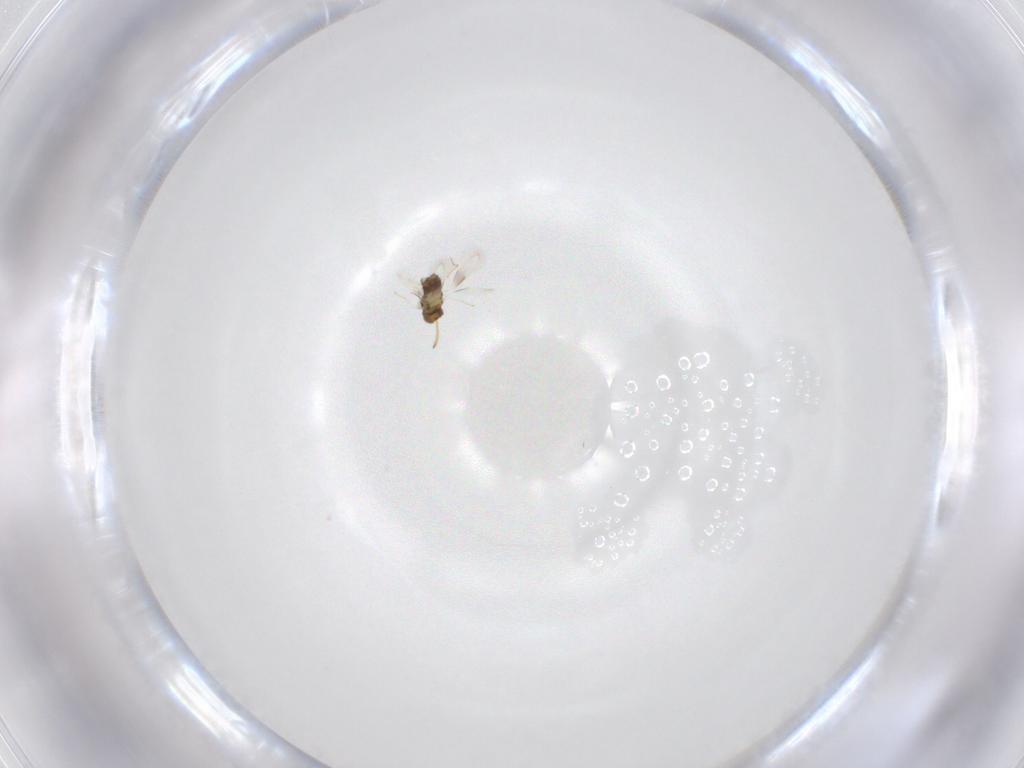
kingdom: Animalia
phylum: Arthropoda
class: Insecta
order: Hymenoptera
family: Aphelinidae
